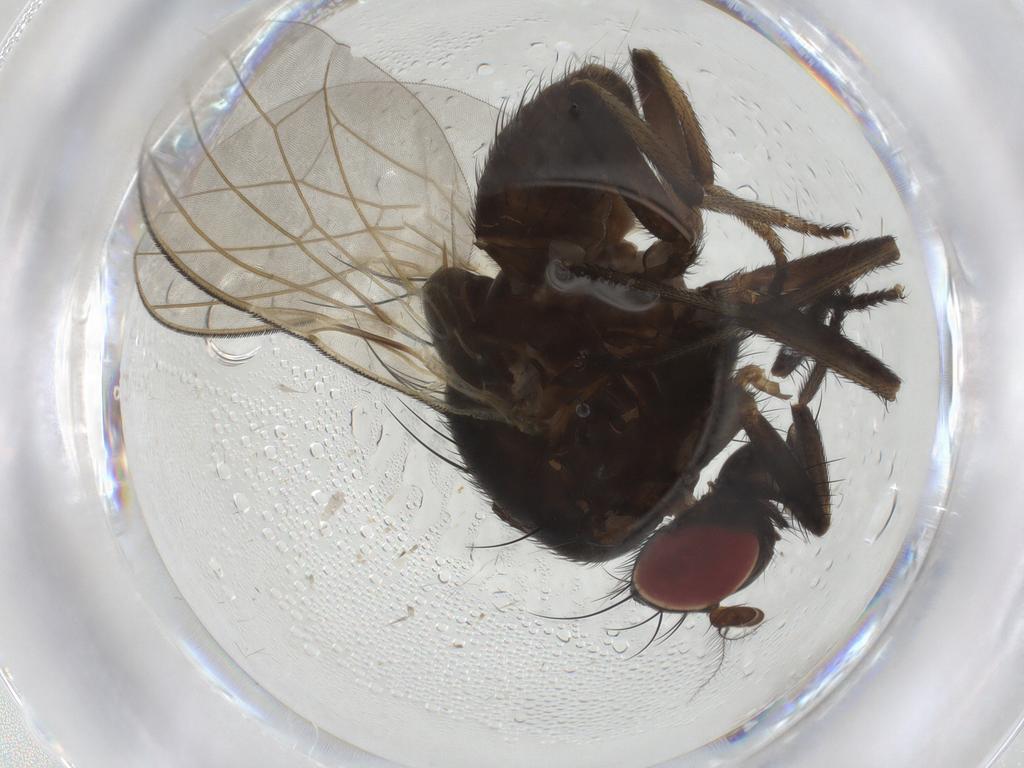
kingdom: Animalia
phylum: Arthropoda
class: Insecta
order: Diptera
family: Lauxaniidae
